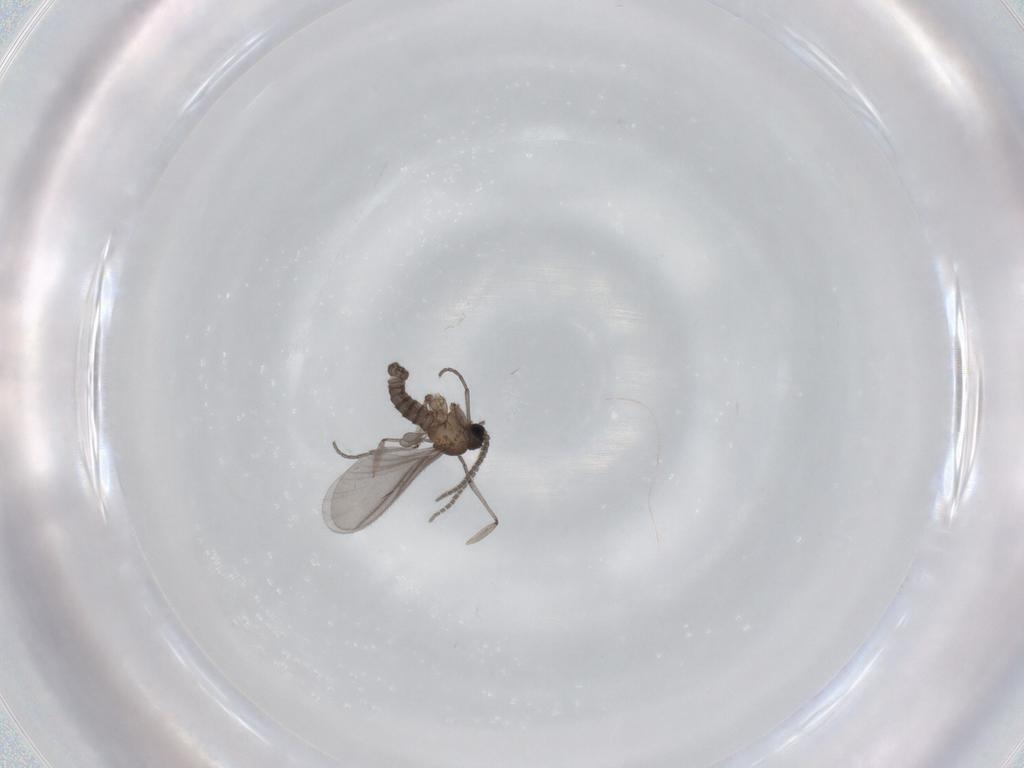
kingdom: Animalia
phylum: Arthropoda
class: Insecta
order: Diptera
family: Sciaridae
